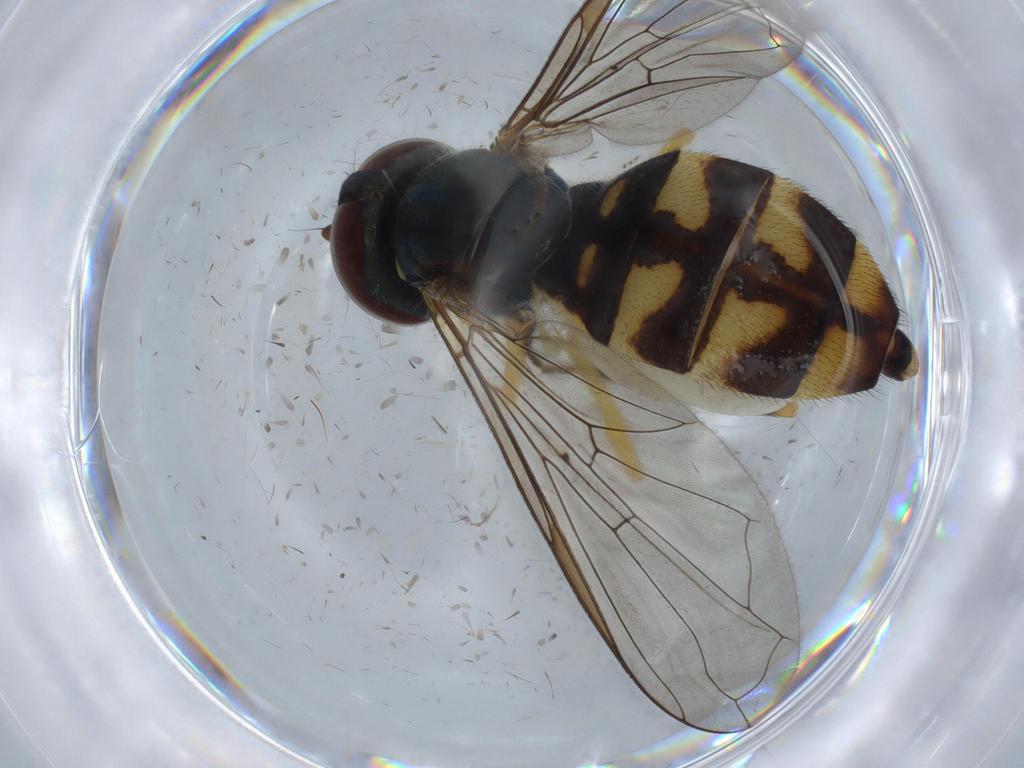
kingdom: Animalia
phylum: Arthropoda
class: Insecta
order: Diptera
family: Syrphidae
